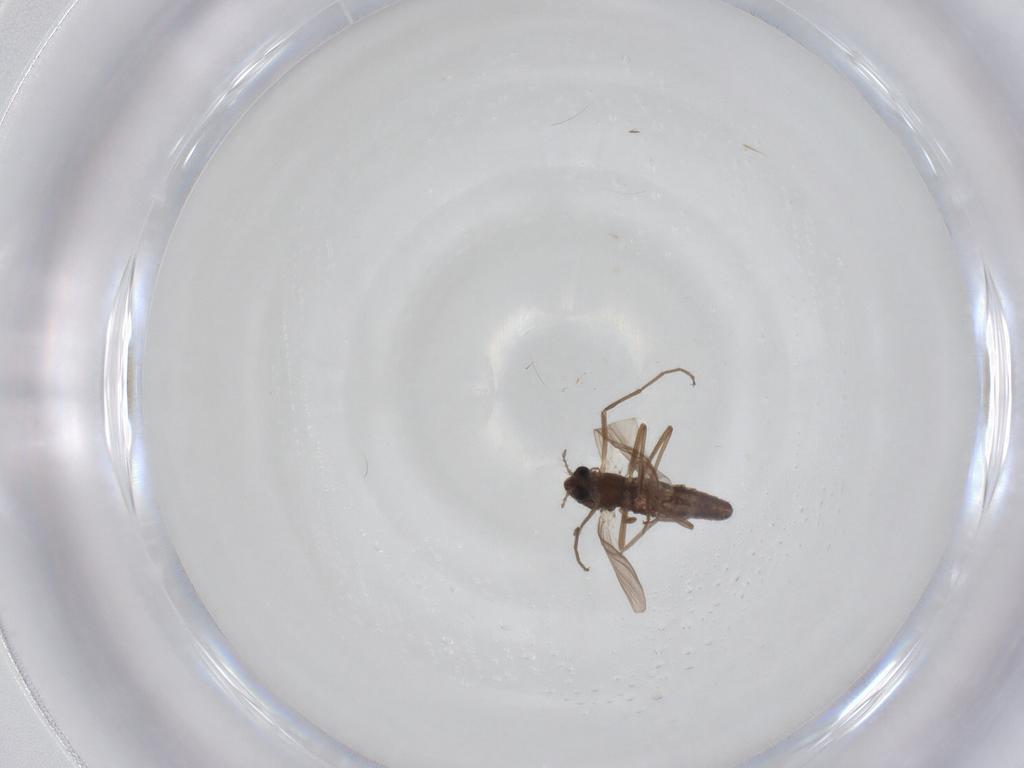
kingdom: Animalia
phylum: Arthropoda
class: Insecta
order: Diptera
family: Chironomidae
